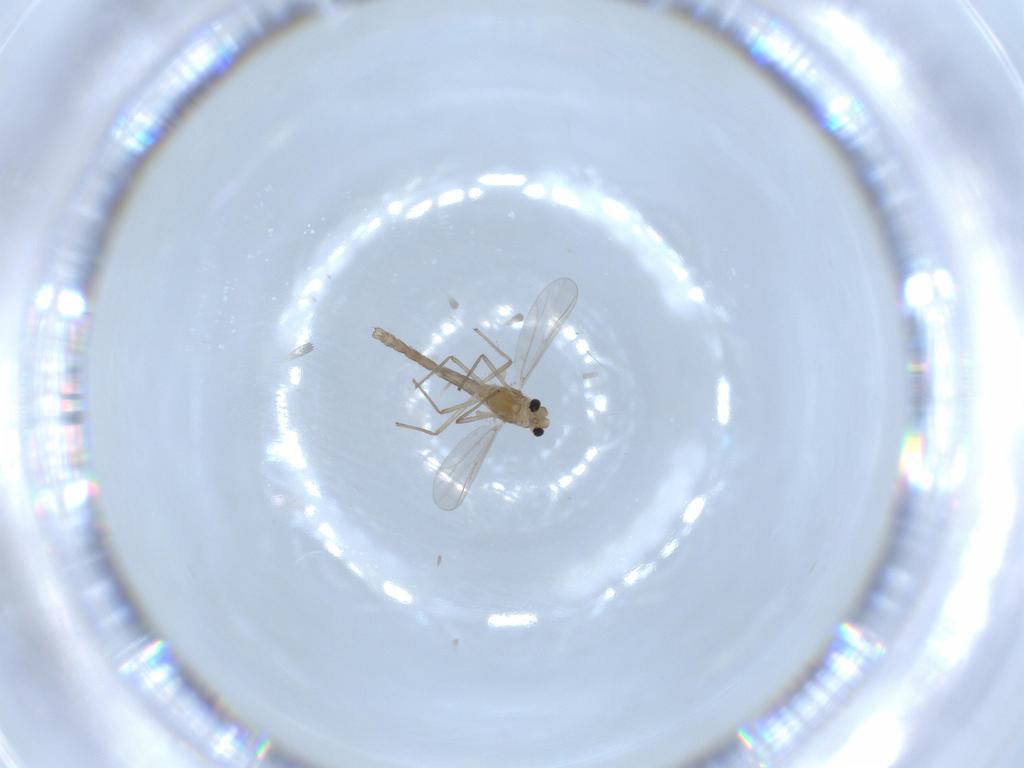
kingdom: Animalia
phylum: Arthropoda
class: Insecta
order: Diptera
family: Chironomidae
